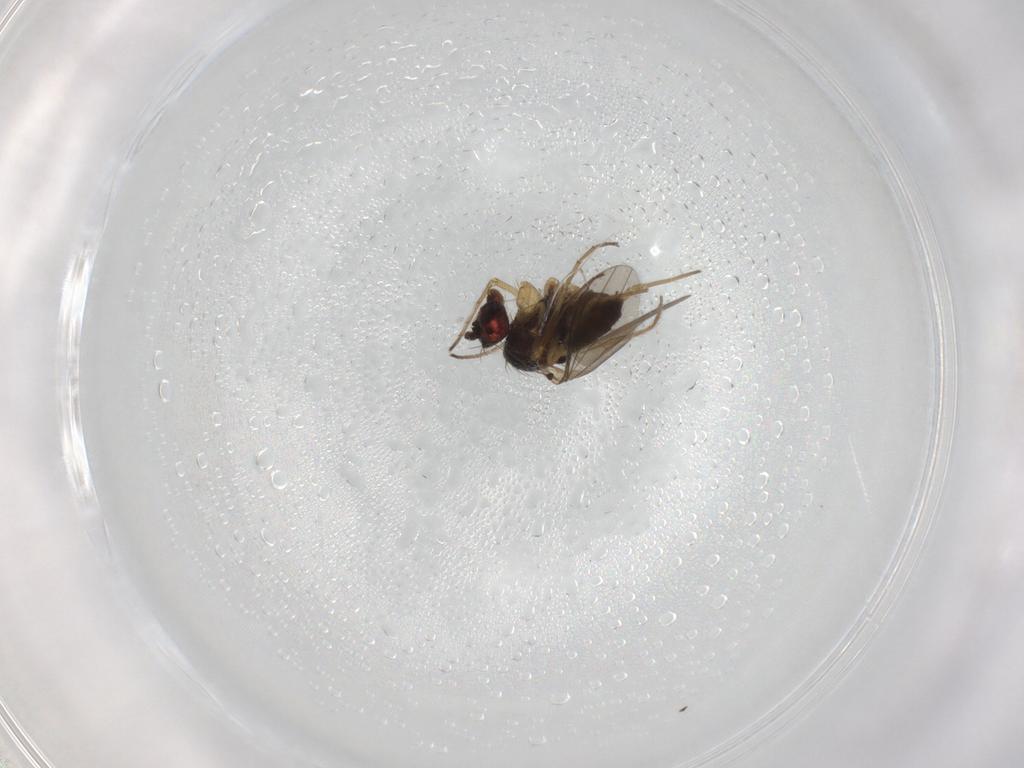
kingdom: Animalia
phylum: Arthropoda
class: Insecta
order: Diptera
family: Dolichopodidae
